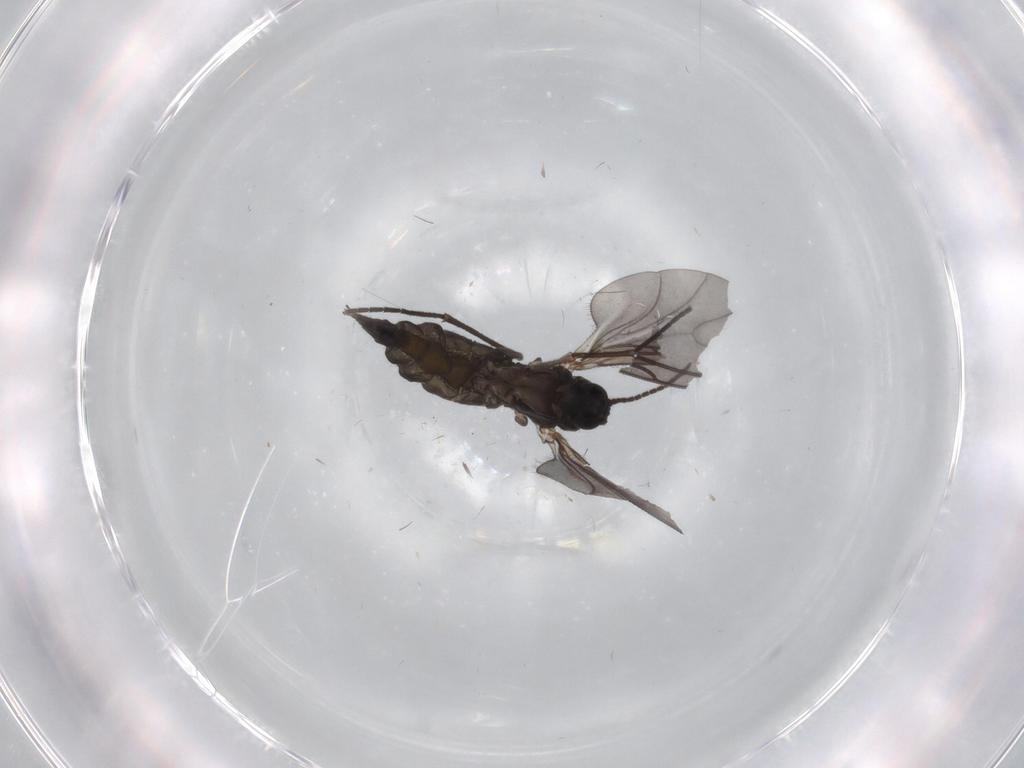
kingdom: Animalia
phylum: Arthropoda
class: Insecta
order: Diptera
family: Sciaridae
